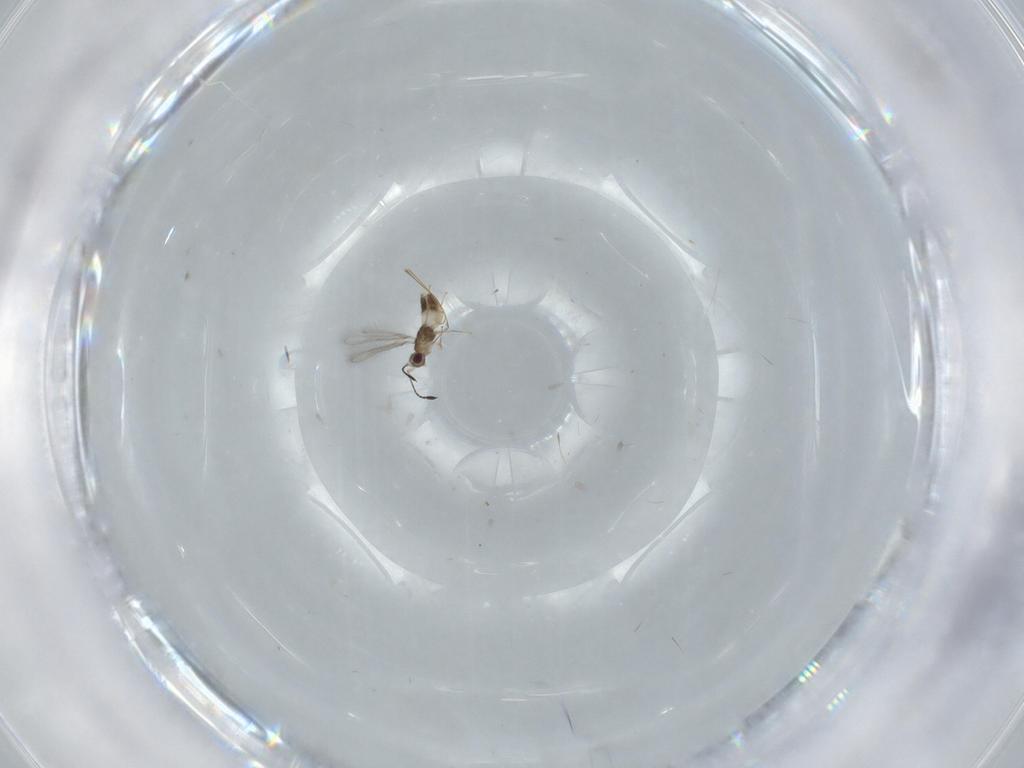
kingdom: Animalia
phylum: Arthropoda
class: Insecta
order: Hymenoptera
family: Mymaridae
